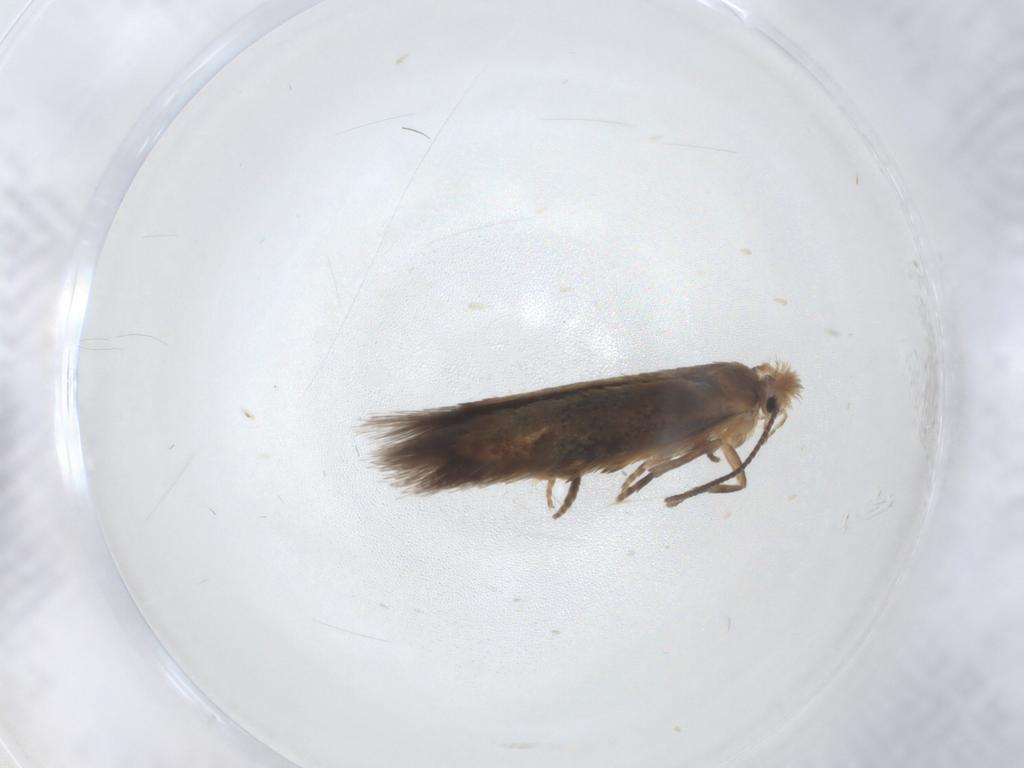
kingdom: Animalia
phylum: Arthropoda
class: Insecta
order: Lepidoptera
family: Nepticulidae
